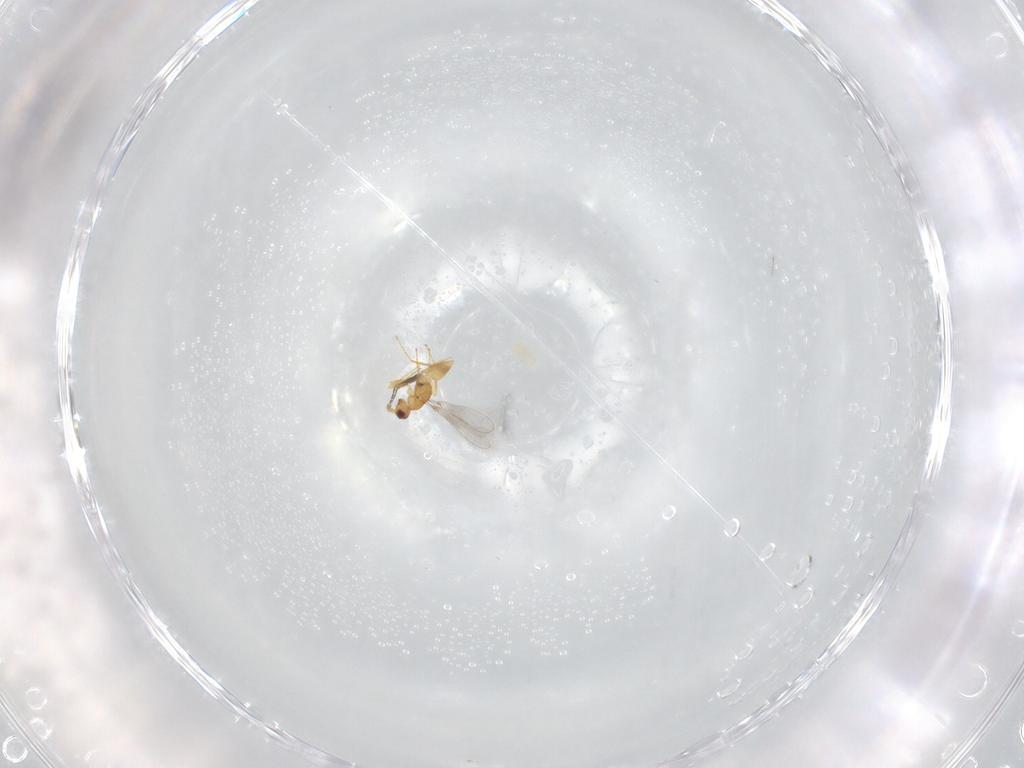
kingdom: Animalia
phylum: Arthropoda
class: Insecta
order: Hymenoptera
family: Mymaridae
